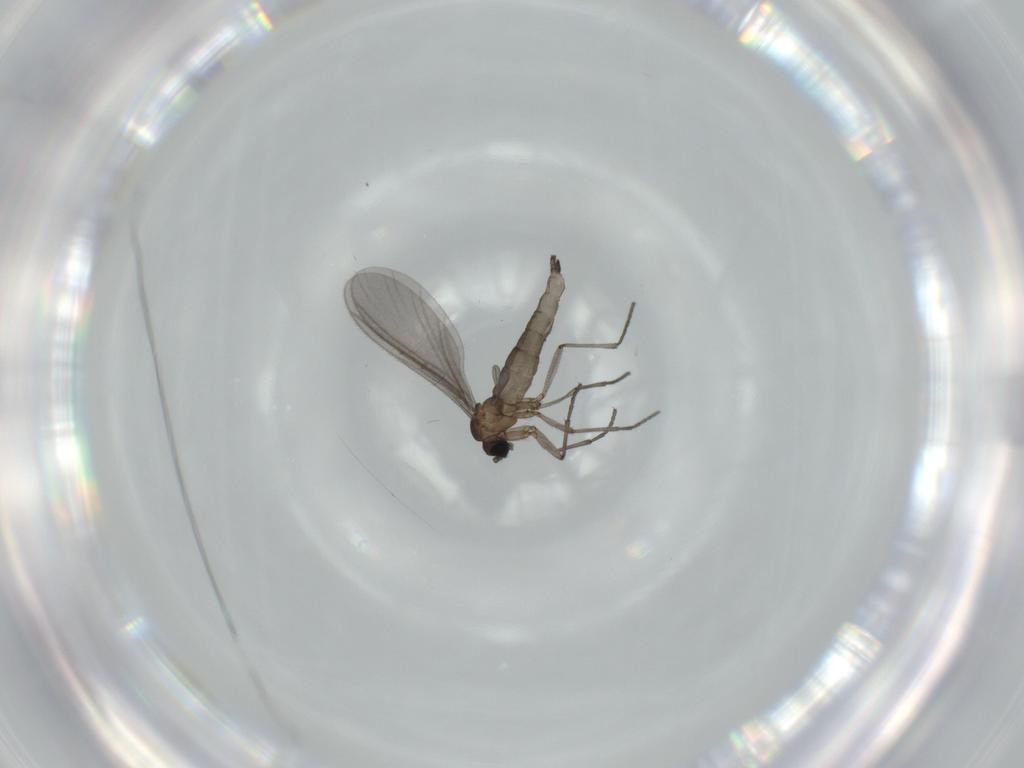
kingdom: Animalia
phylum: Arthropoda
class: Insecta
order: Diptera
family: Sciaridae
